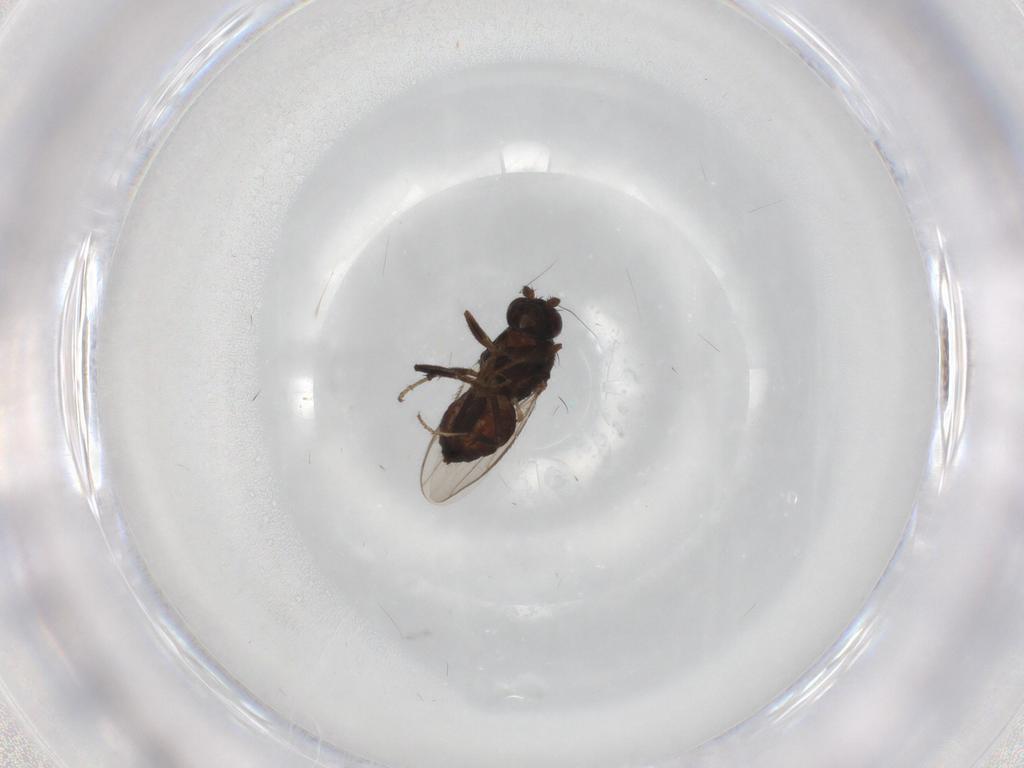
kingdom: Animalia
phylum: Arthropoda
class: Insecta
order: Diptera
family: Sphaeroceridae
